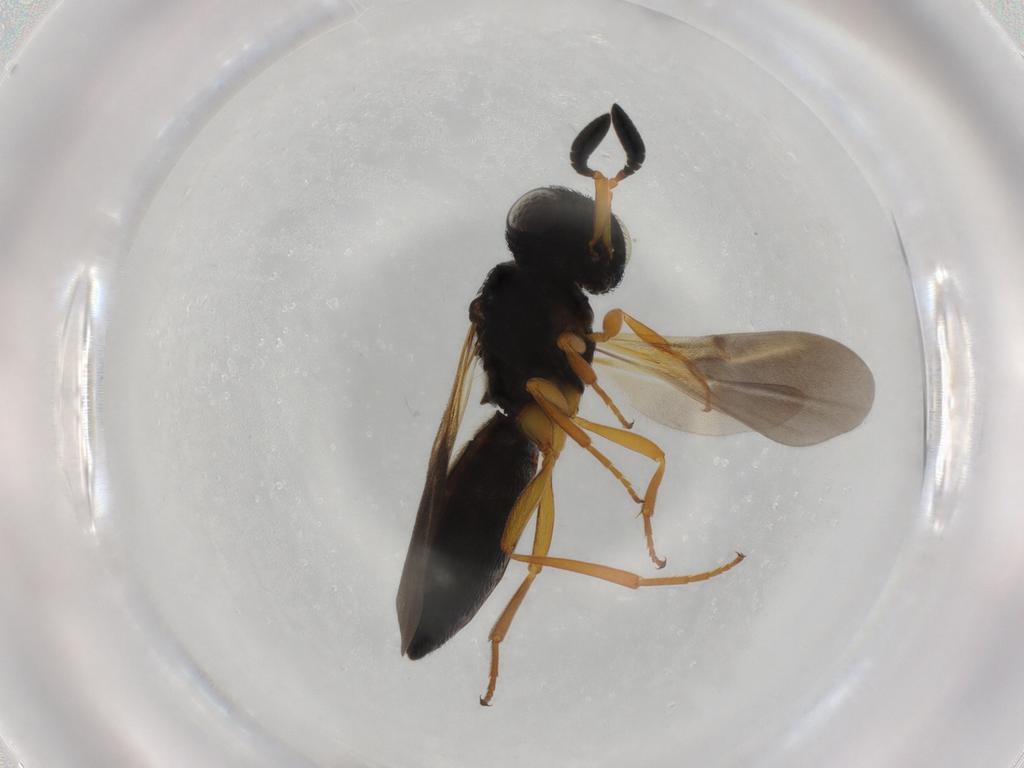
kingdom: Animalia
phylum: Arthropoda
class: Insecta
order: Hymenoptera
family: Scelionidae
